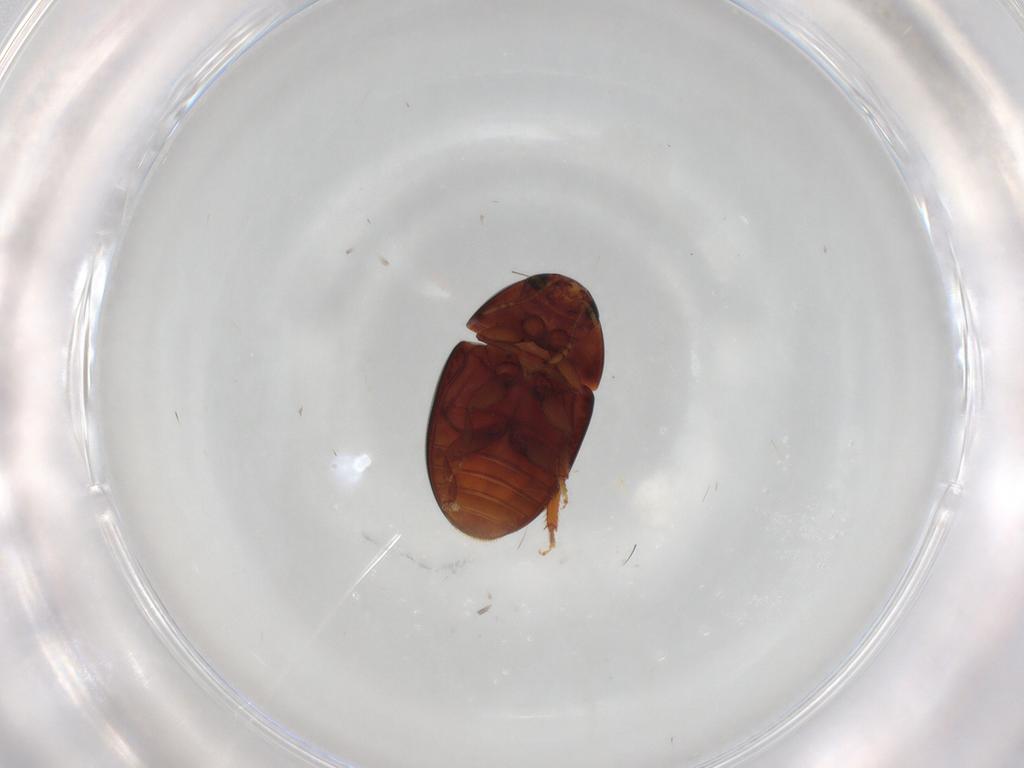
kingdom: Animalia
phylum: Arthropoda
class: Insecta
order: Coleoptera
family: Phalacridae
